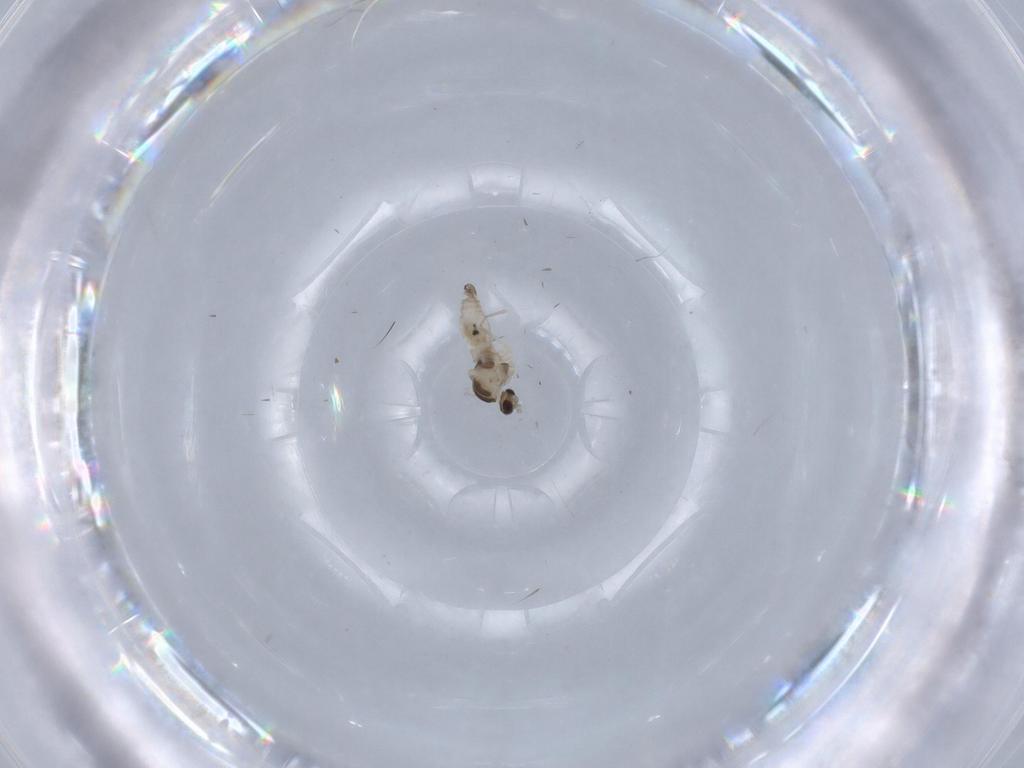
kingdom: Animalia
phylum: Arthropoda
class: Insecta
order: Diptera
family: Cecidomyiidae
